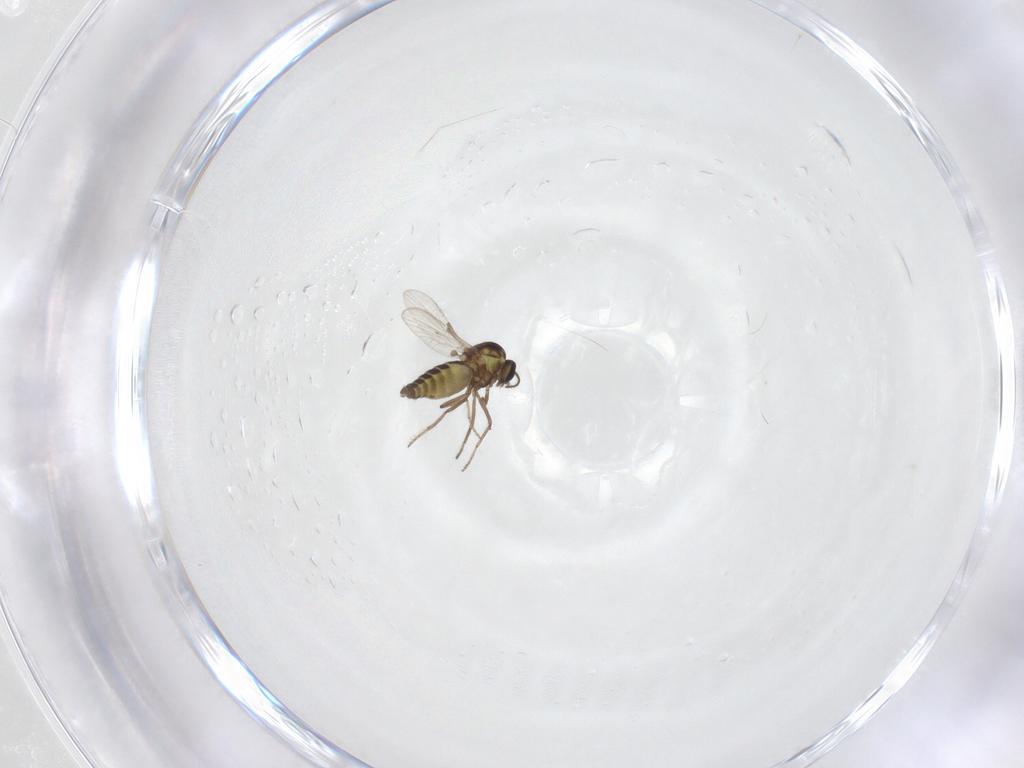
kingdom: Animalia
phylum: Arthropoda
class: Insecta
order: Diptera
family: Ceratopogonidae
